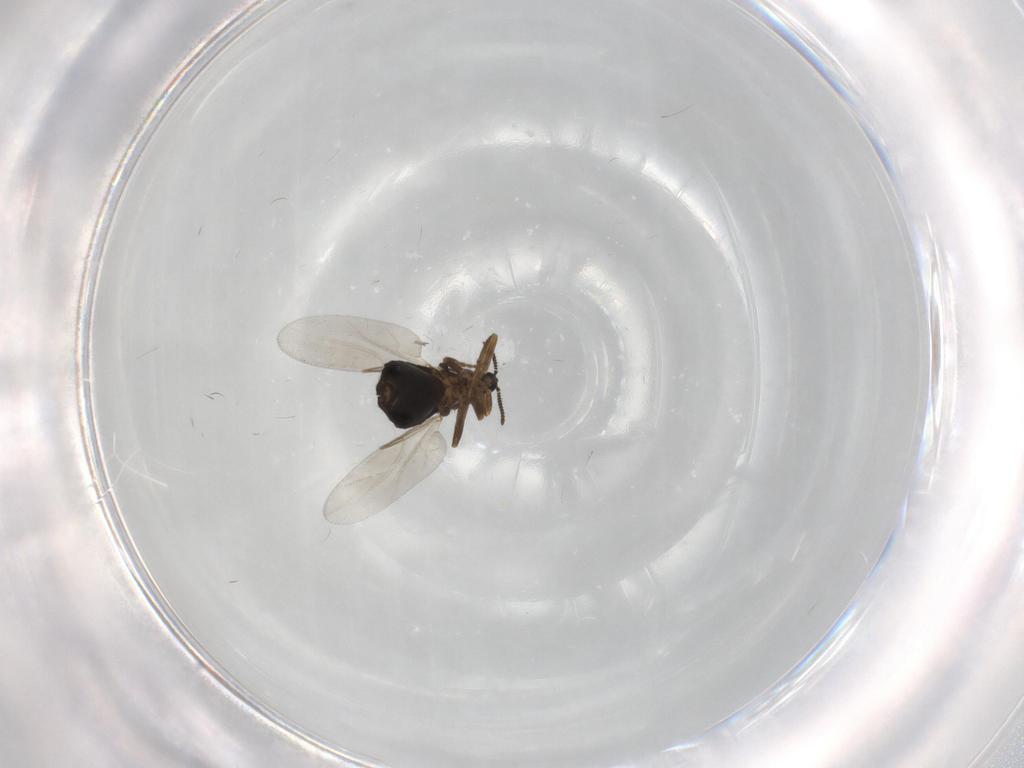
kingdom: Animalia
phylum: Arthropoda
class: Insecta
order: Diptera
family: Scatopsidae
